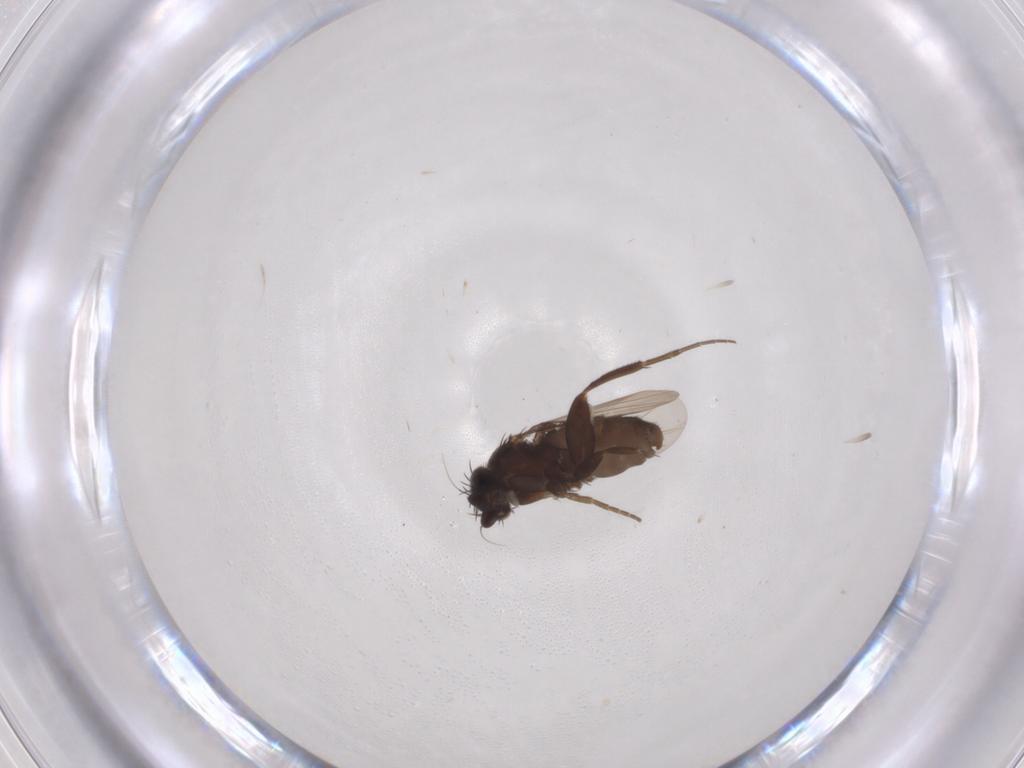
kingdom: Animalia
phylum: Arthropoda
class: Insecta
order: Diptera
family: Phoridae
